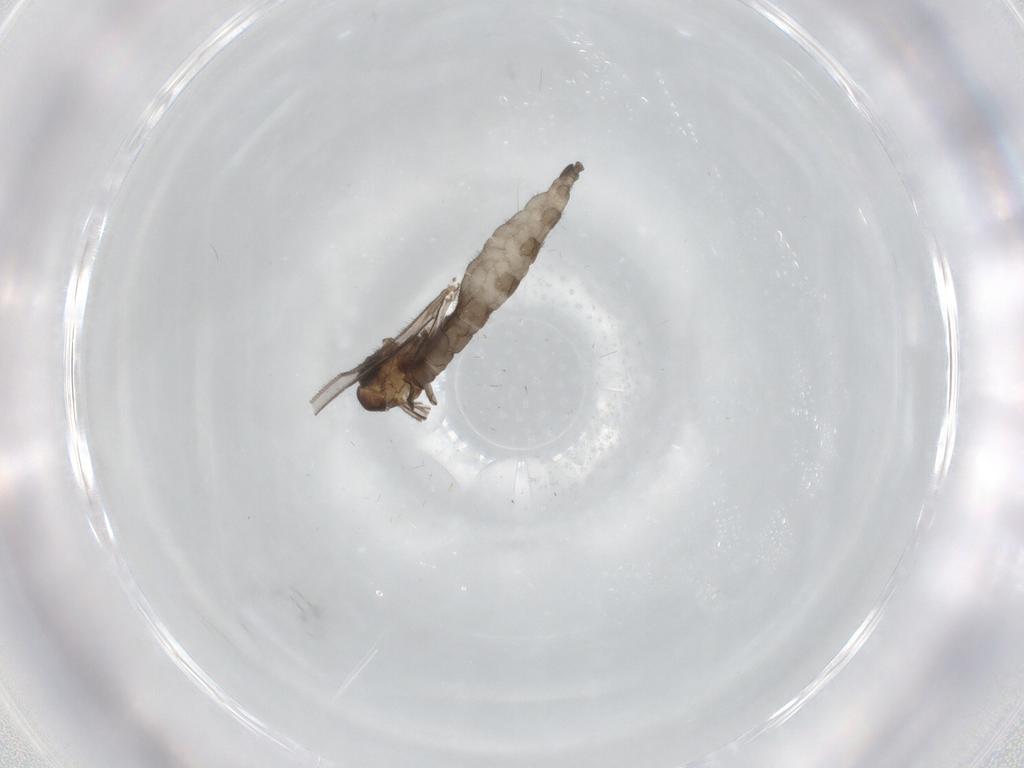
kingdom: Animalia
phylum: Arthropoda
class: Insecta
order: Diptera
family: Sciaridae
